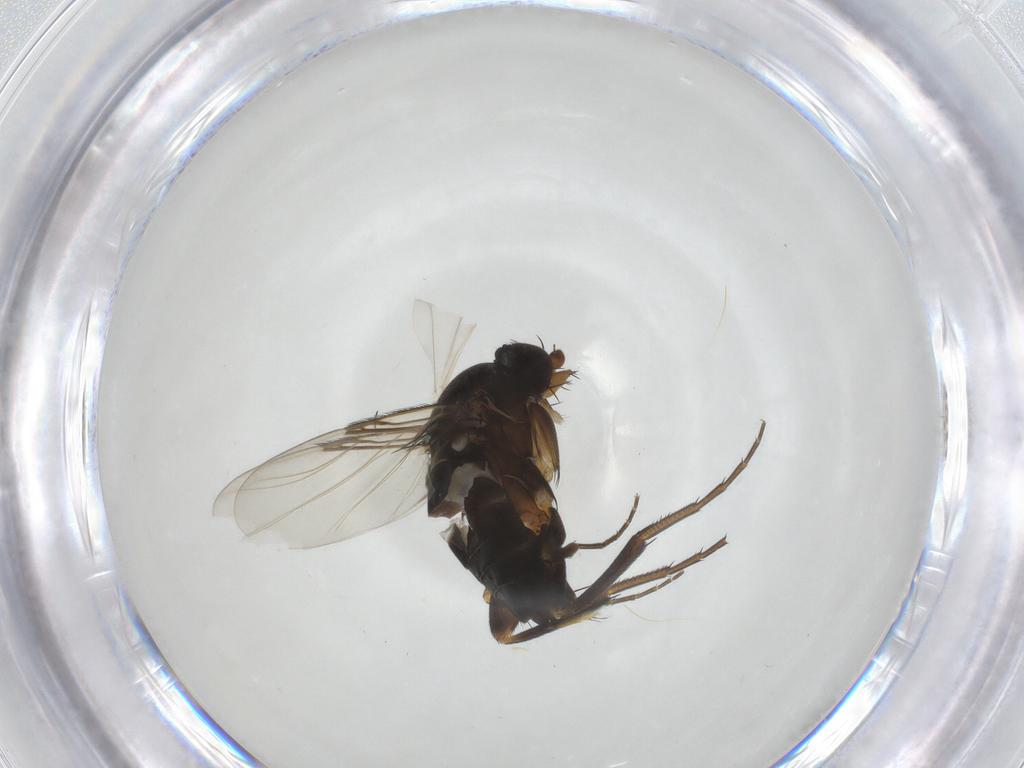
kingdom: Animalia
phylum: Arthropoda
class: Insecta
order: Diptera
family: Phoridae
